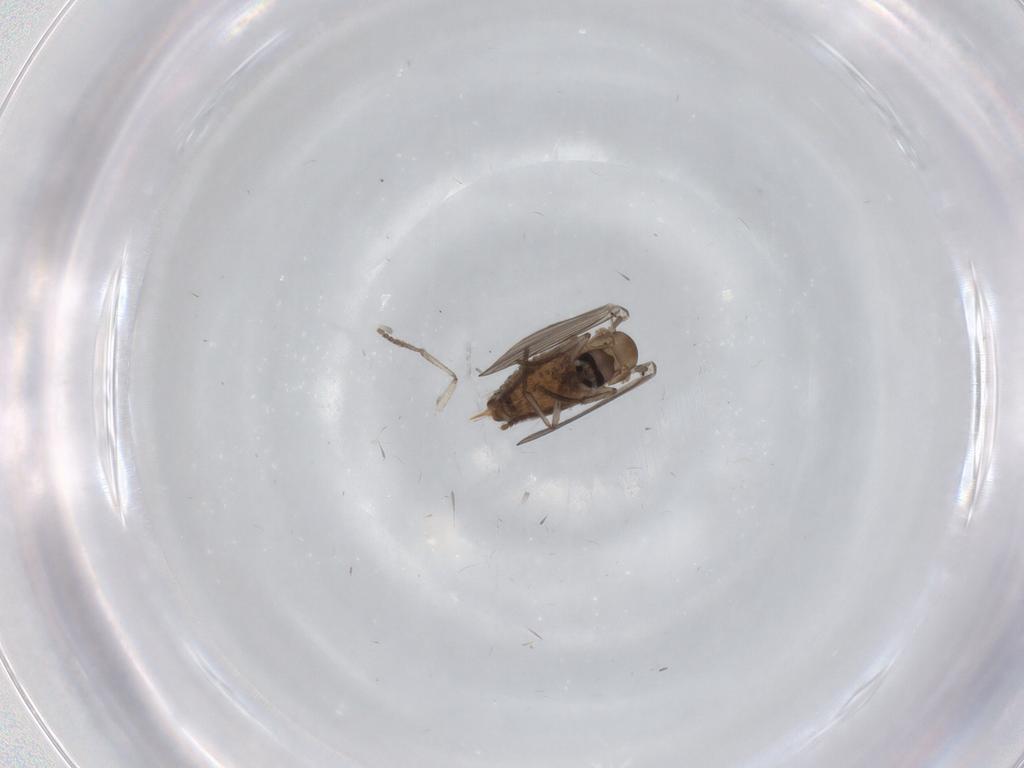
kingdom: Animalia
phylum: Arthropoda
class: Insecta
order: Diptera
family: Psychodidae
